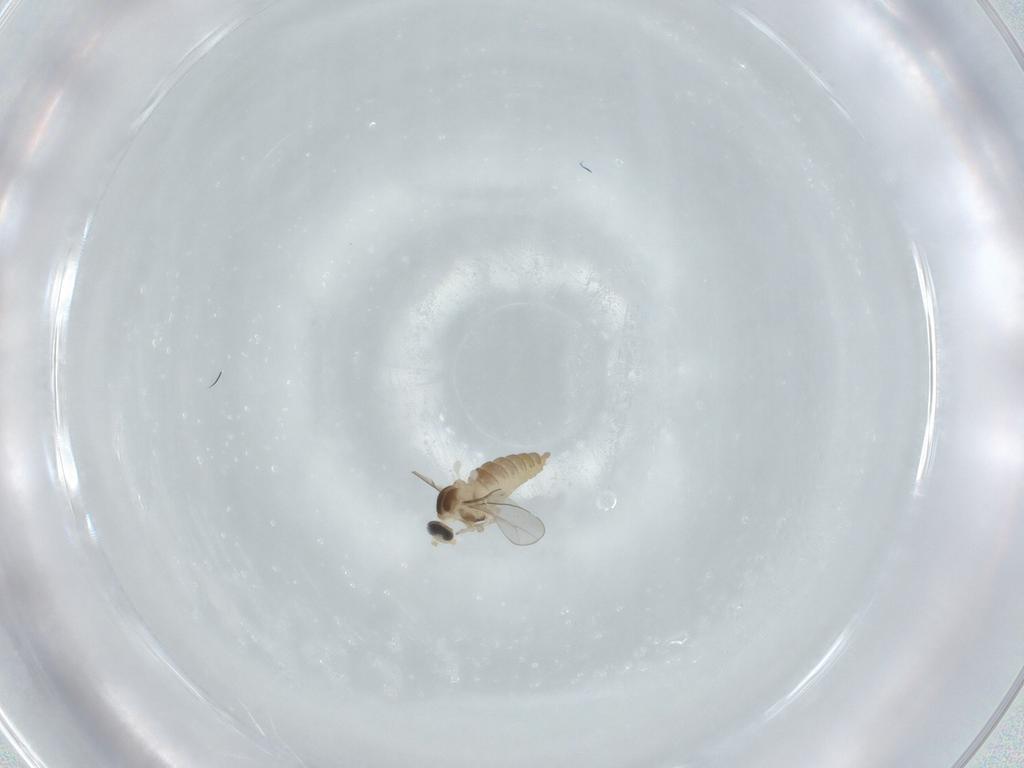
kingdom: Animalia
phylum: Arthropoda
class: Insecta
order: Diptera
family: Cecidomyiidae
